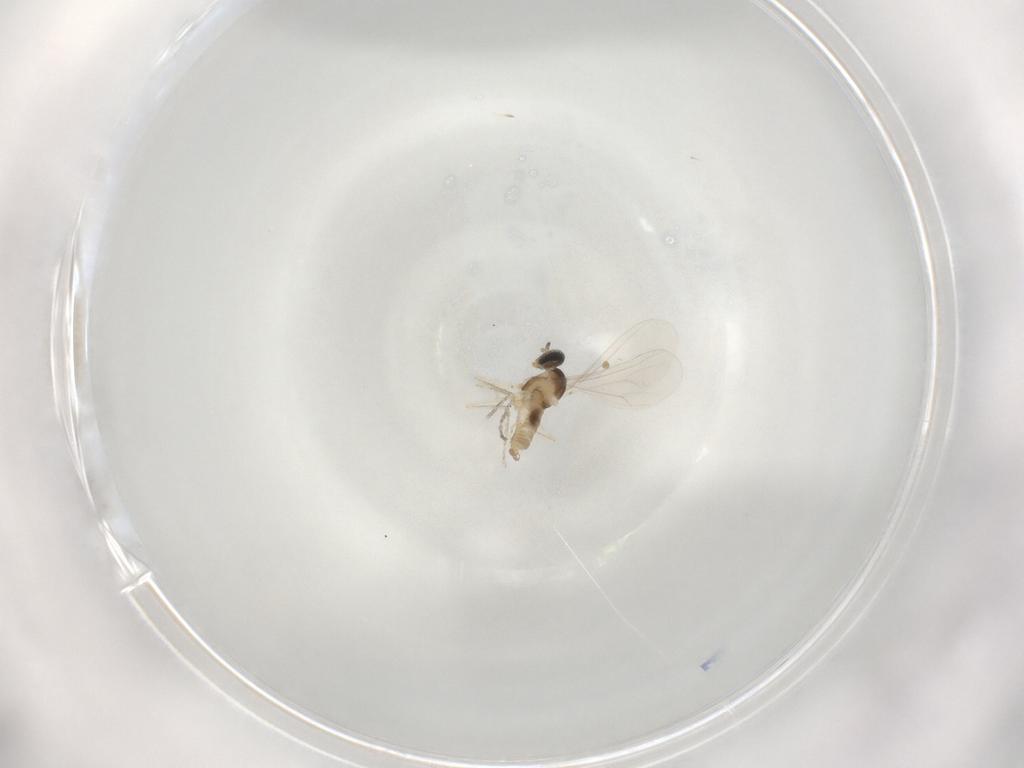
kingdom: Animalia
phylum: Arthropoda
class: Insecta
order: Diptera
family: Cecidomyiidae
